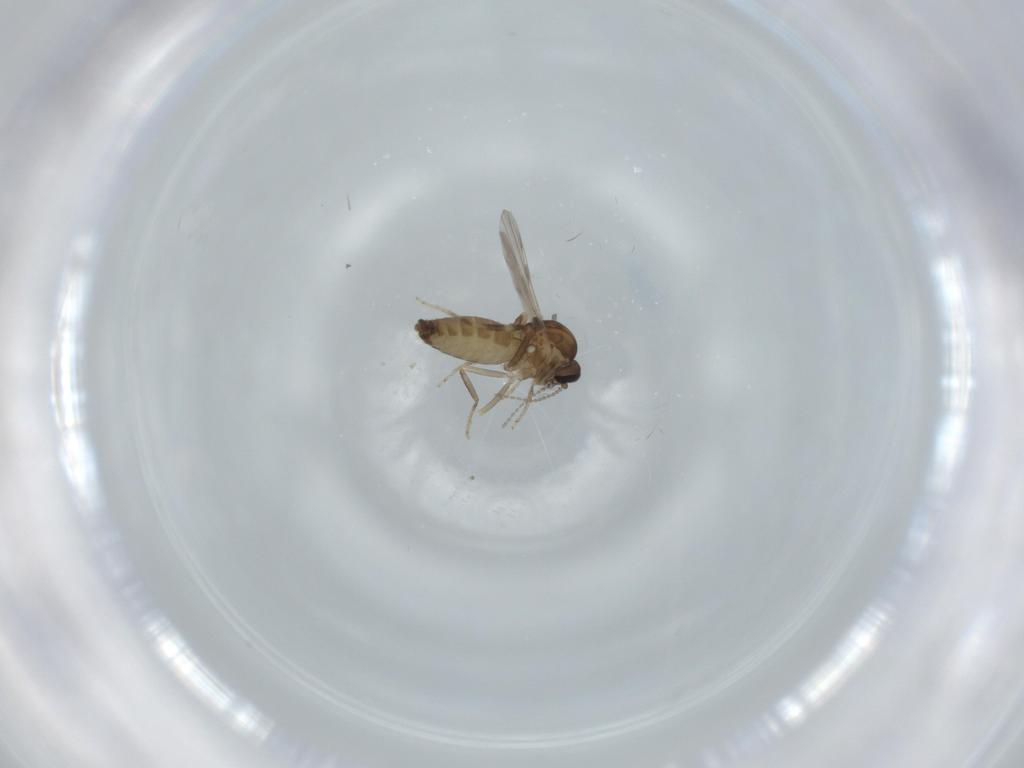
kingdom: Animalia
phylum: Arthropoda
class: Insecta
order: Diptera
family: Ceratopogonidae
